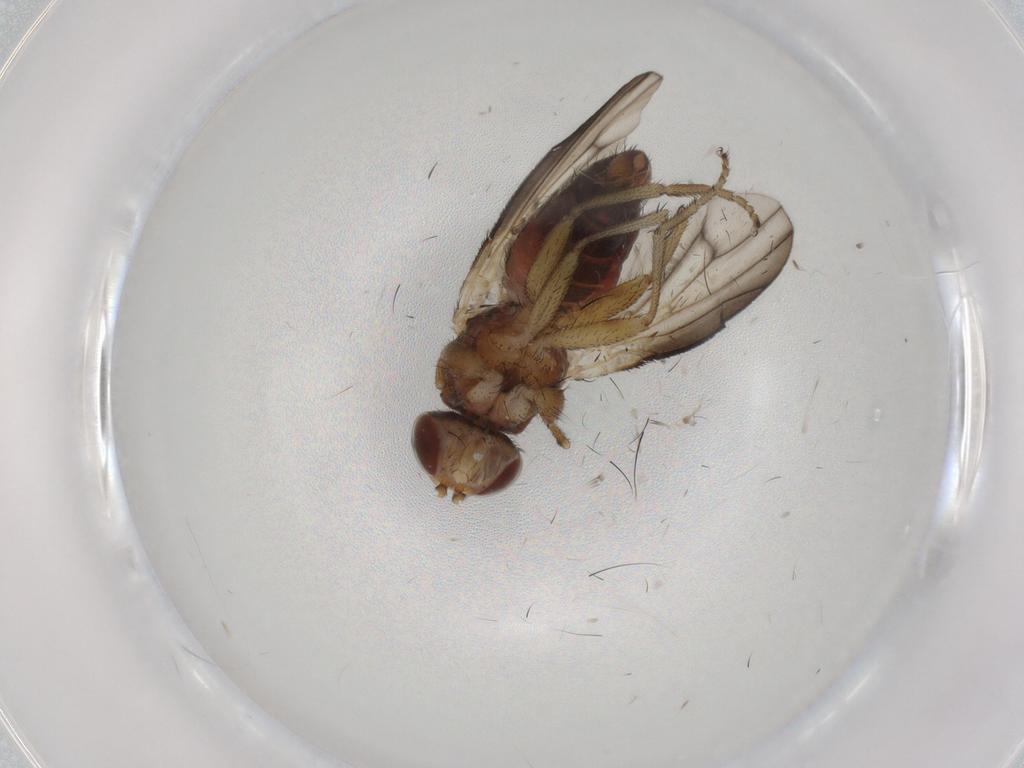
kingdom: Animalia
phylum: Arthropoda
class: Insecta
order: Diptera
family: Heleomyzidae
